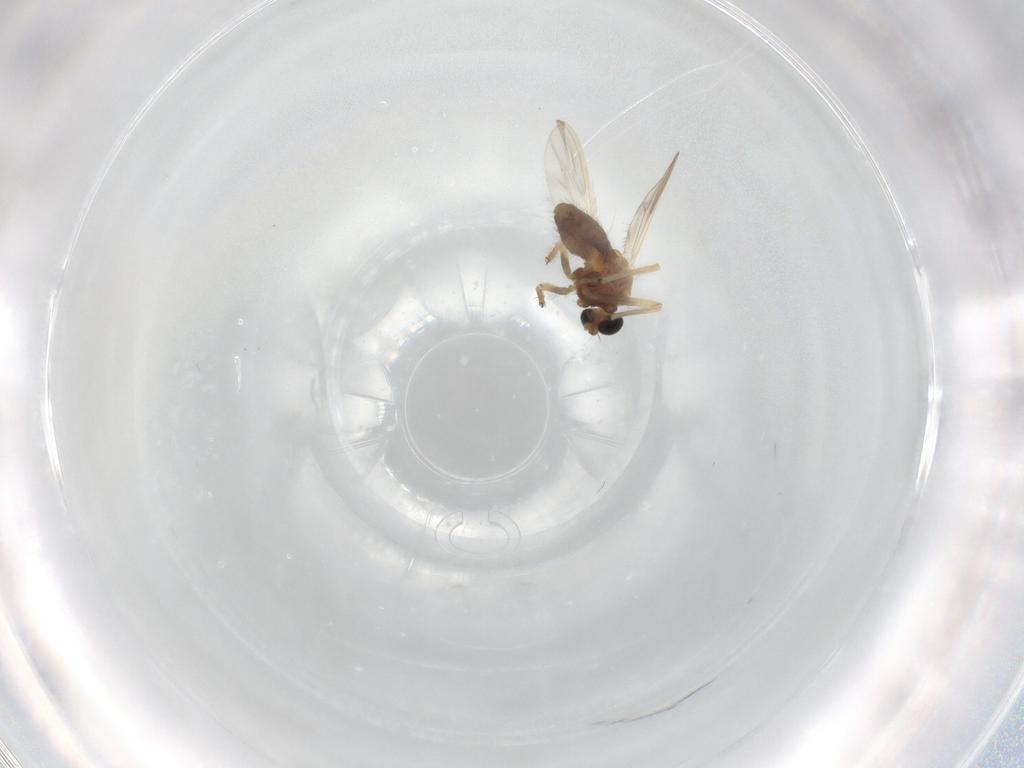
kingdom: Animalia
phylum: Arthropoda
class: Insecta
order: Diptera
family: Chironomidae
